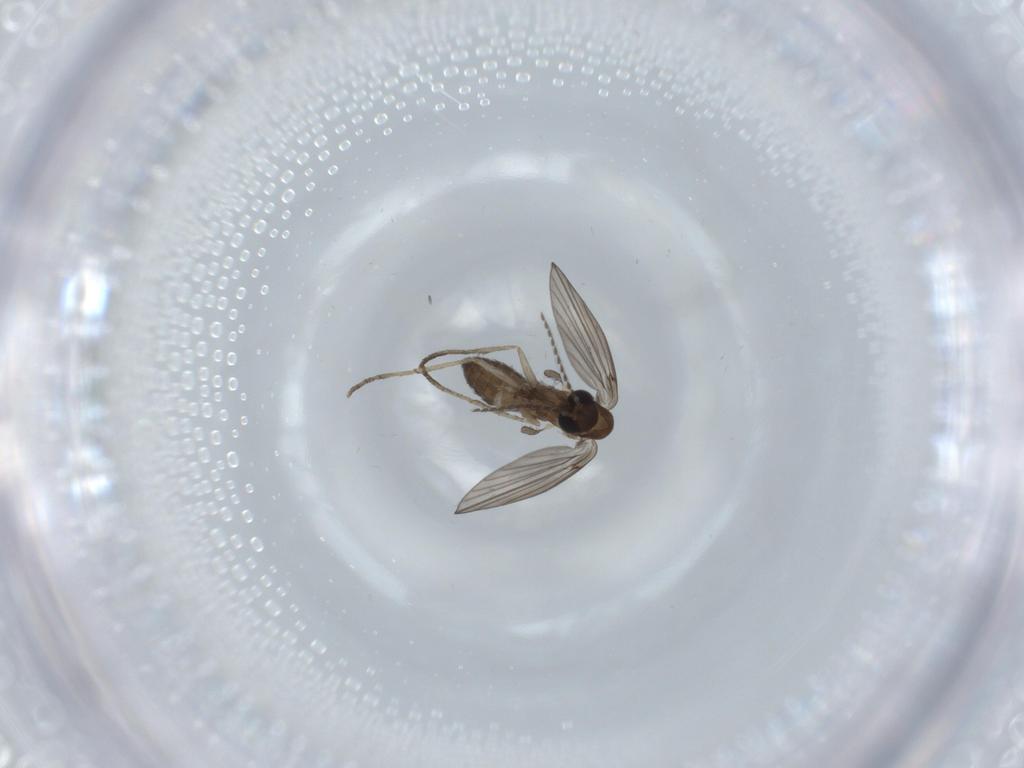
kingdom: Animalia
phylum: Arthropoda
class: Insecta
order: Diptera
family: Psychodidae
